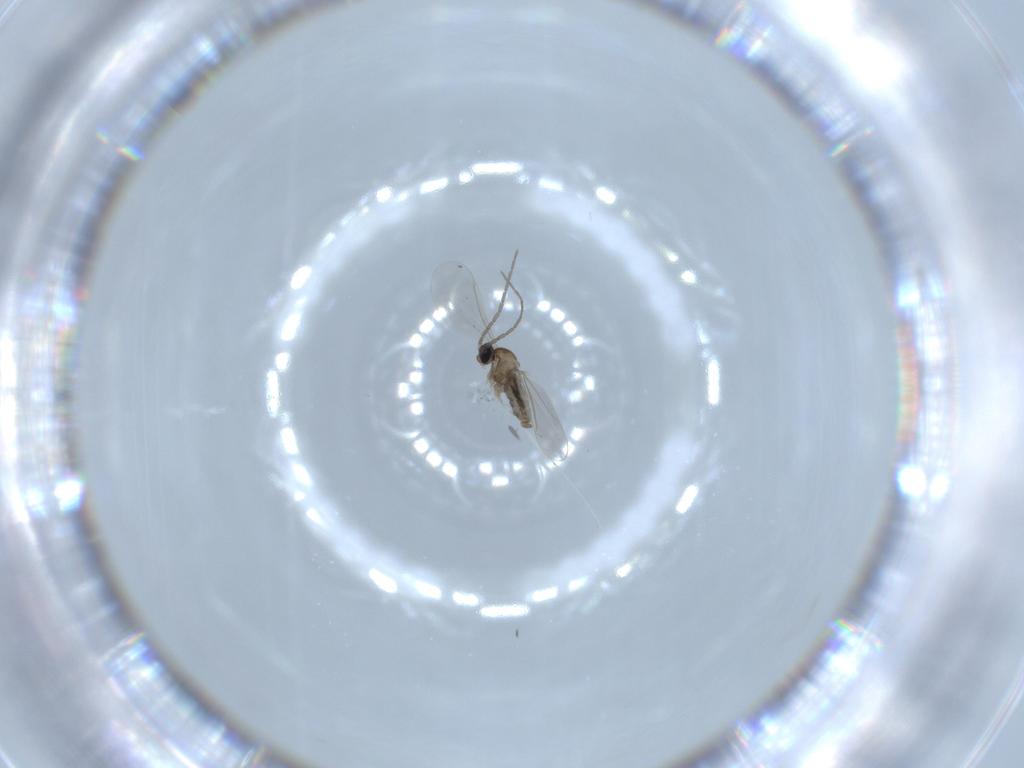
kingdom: Animalia
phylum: Arthropoda
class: Insecta
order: Diptera
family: Cecidomyiidae
